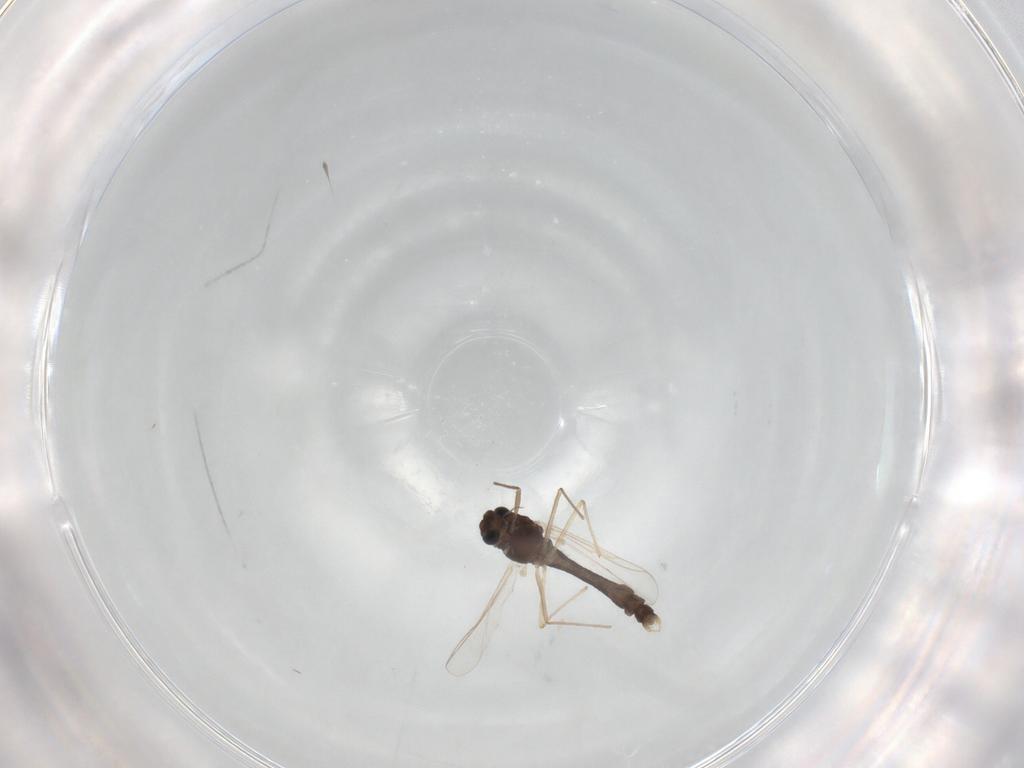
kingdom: Animalia
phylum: Arthropoda
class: Insecta
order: Diptera
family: Chironomidae
